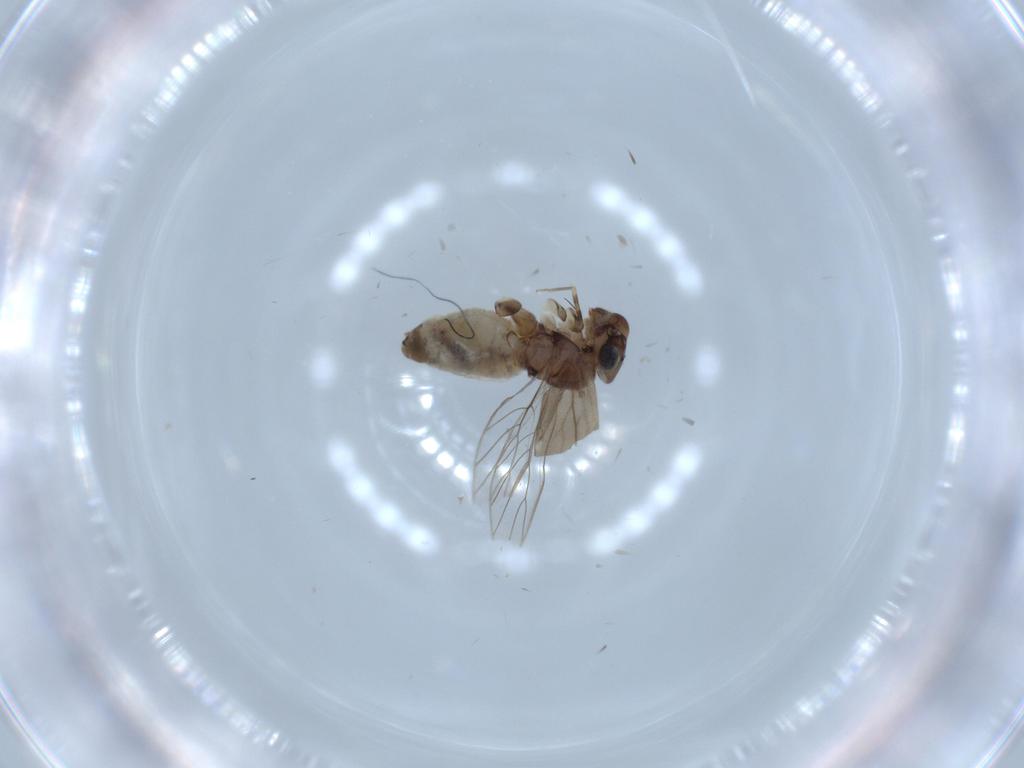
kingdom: Animalia
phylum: Arthropoda
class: Insecta
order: Psocodea
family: Lepidopsocidae
